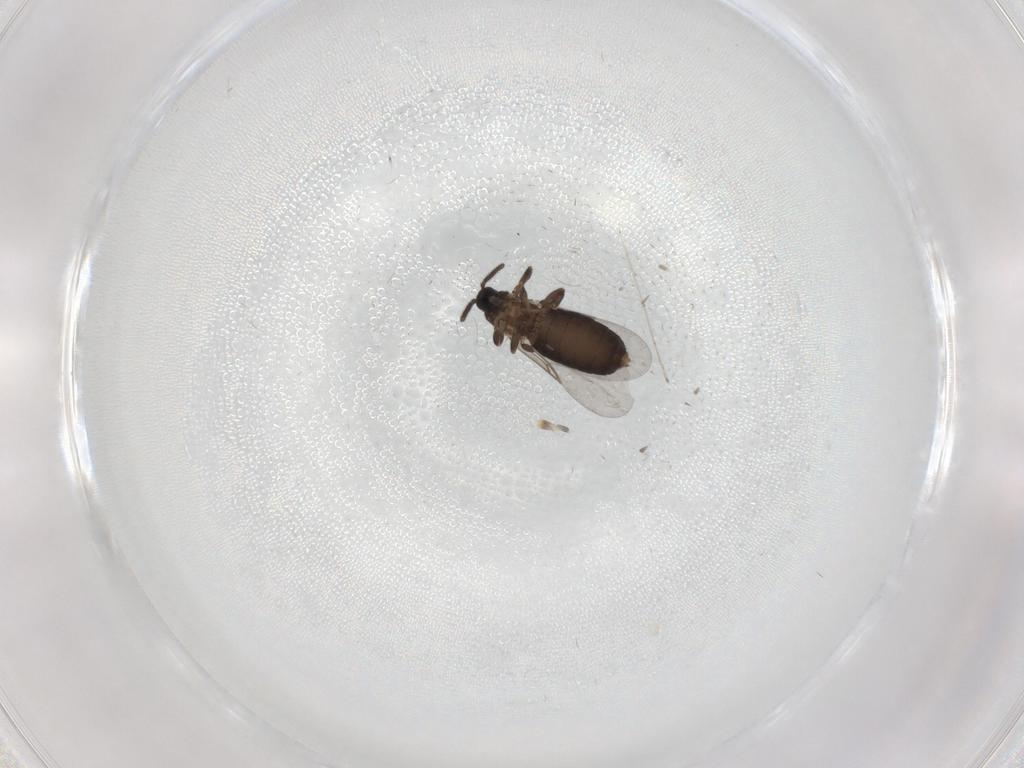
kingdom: Animalia
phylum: Arthropoda
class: Insecta
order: Diptera
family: Scatopsidae
